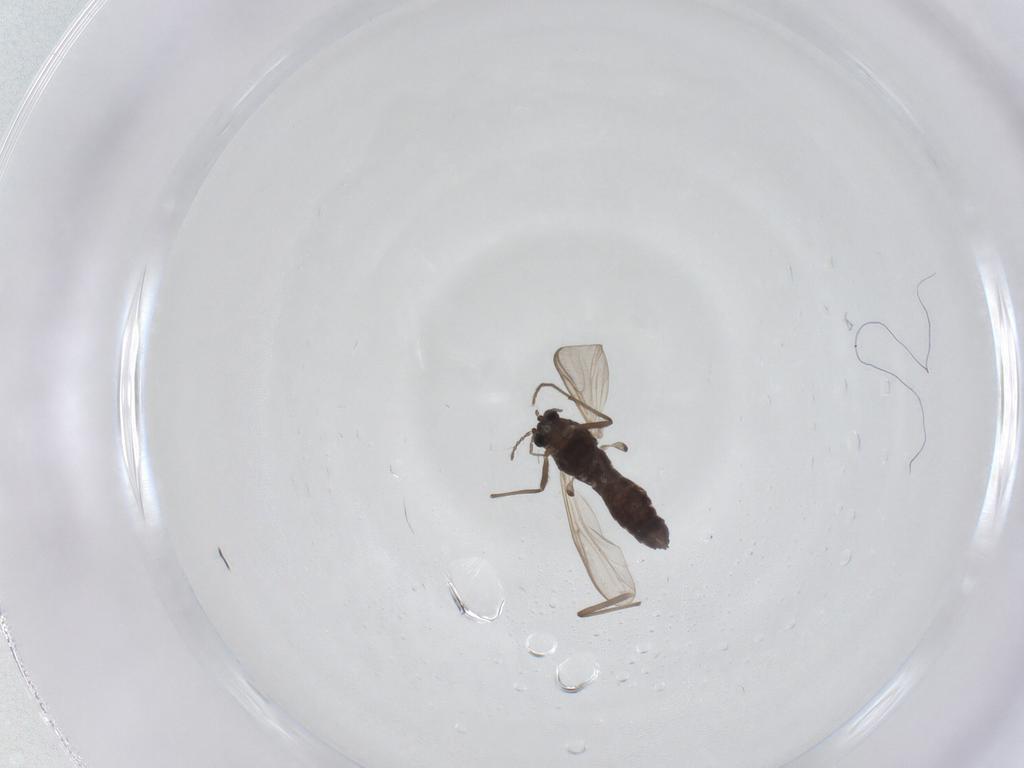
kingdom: Animalia
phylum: Arthropoda
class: Insecta
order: Diptera
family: Chironomidae
